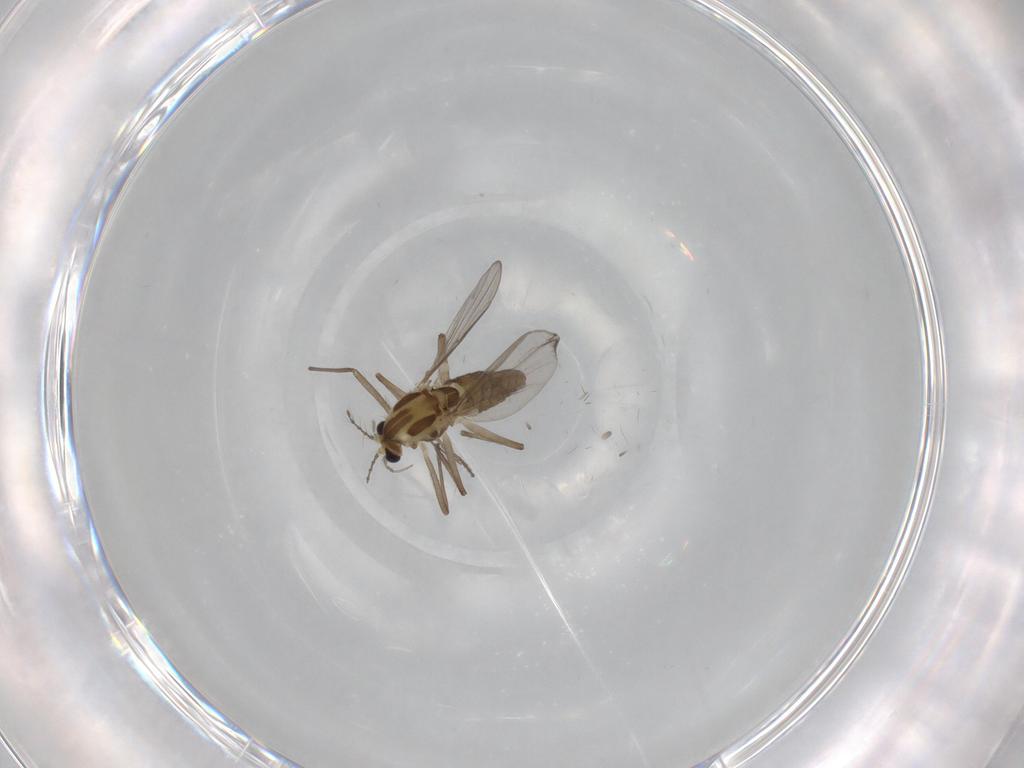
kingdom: Animalia
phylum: Arthropoda
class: Insecta
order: Diptera
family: Chironomidae
